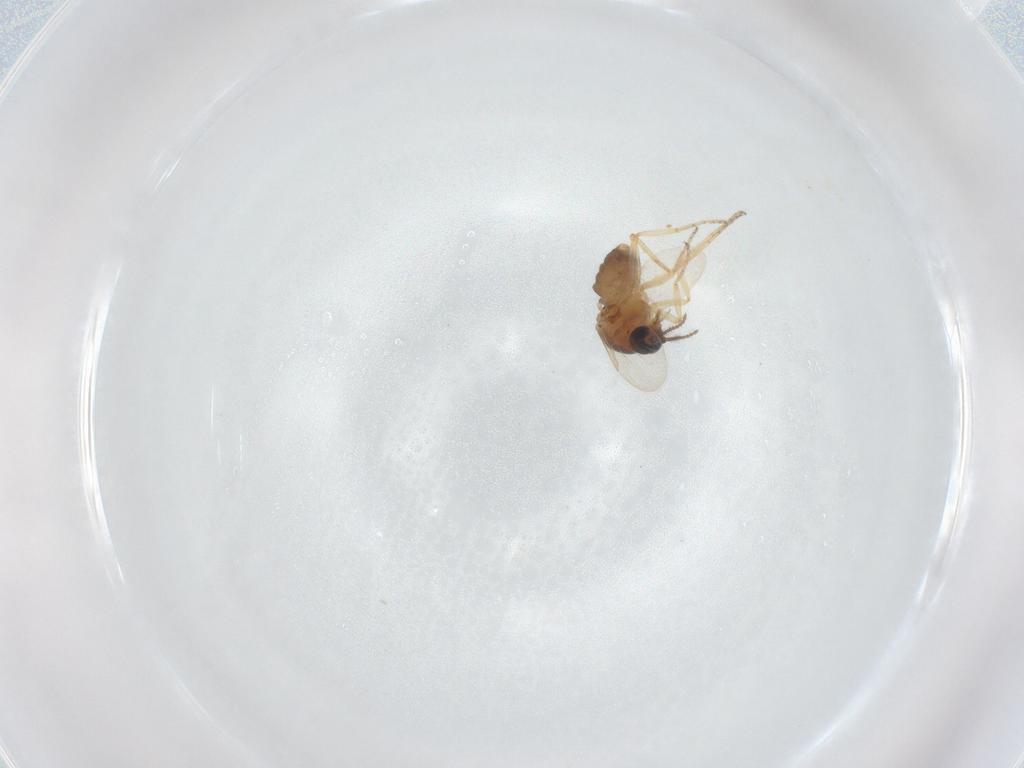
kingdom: Animalia
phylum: Arthropoda
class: Insecta
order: Diptera
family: Ceratopogonidae
